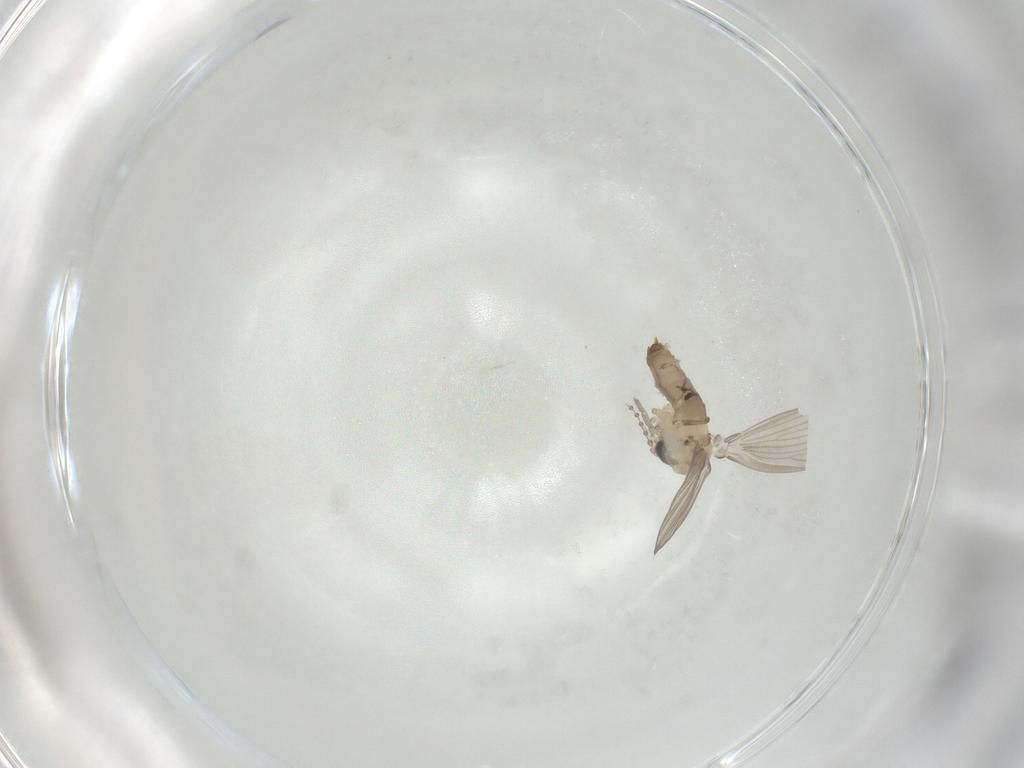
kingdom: Animalia
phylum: Arthropoda
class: Insecta
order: Diptera
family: Psychodidae
